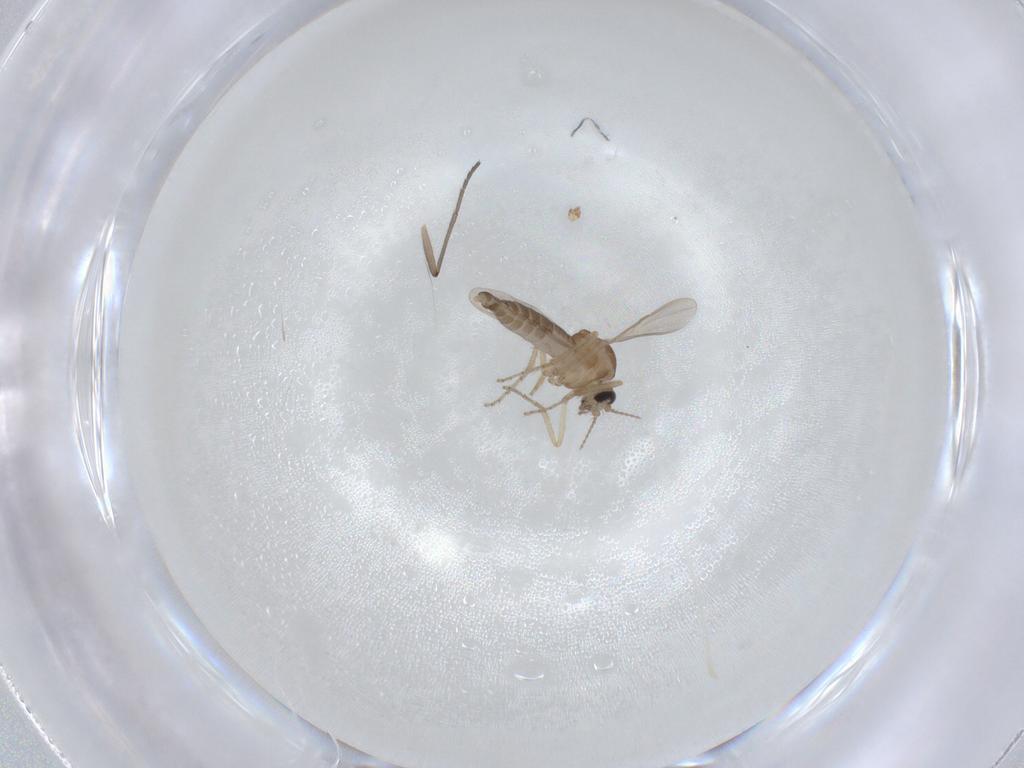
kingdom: Animalia
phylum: Arthropoda
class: Insecta
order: Diptera
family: Ceratopogonidae
